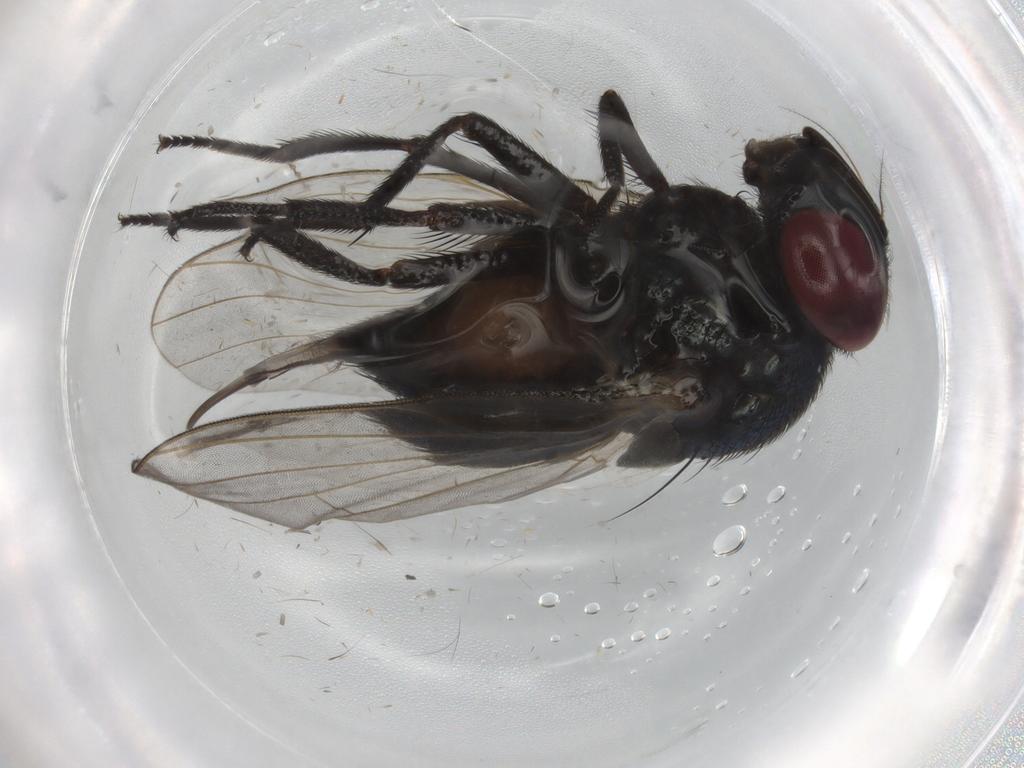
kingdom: Animalia
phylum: Arthropoda
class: Insecta
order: Diptera
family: Lonchaeidae
